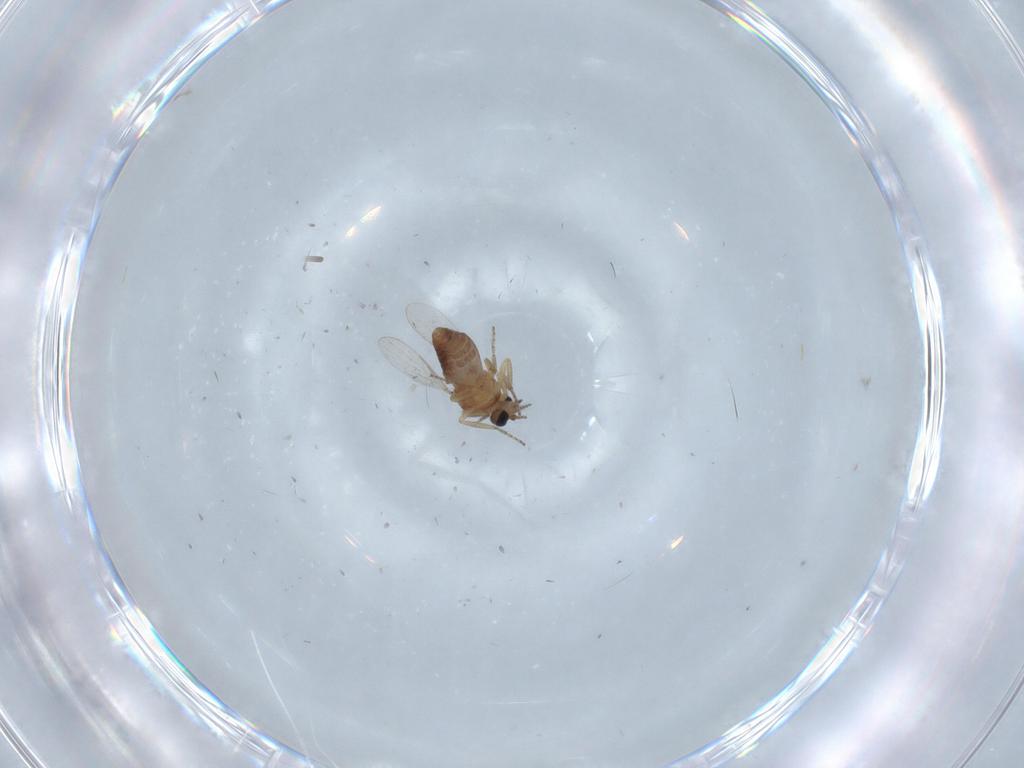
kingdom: Animalia
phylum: Arthropoda
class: Insecta
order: Diptera
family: Ceratopogonidae
